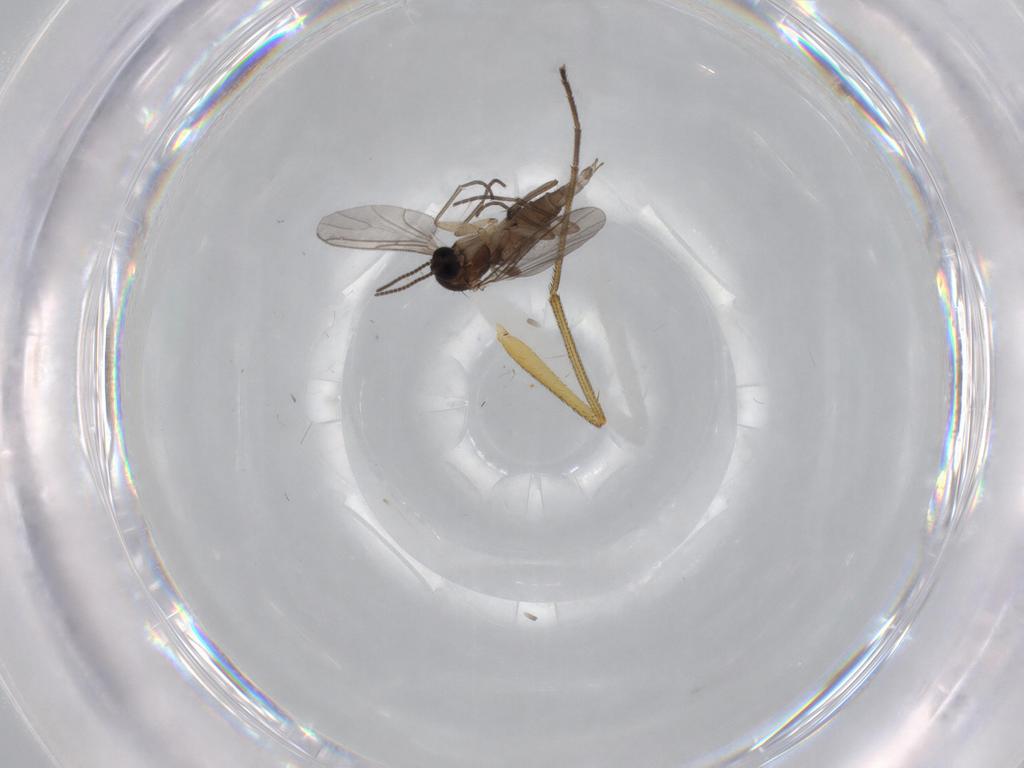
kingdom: Animalia
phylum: Arthropoda
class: Insecta
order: Diptera
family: Dolichopodidae
